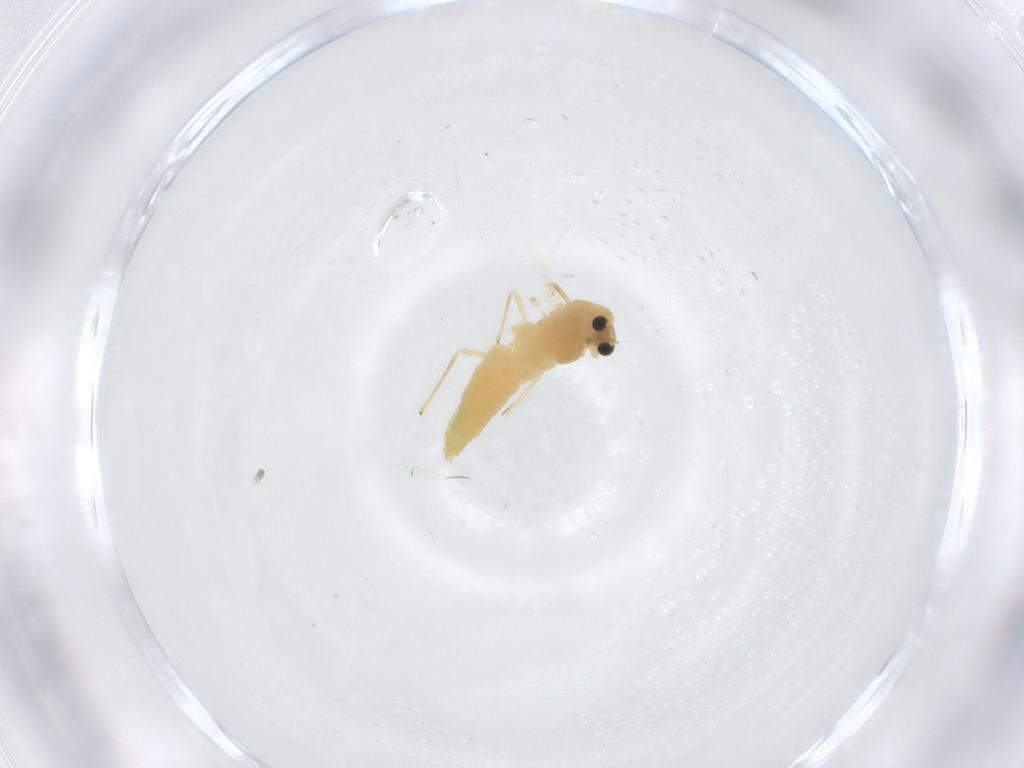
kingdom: Animalia
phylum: Arthropoda
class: Insecta
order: Diptera
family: Chironomidae
